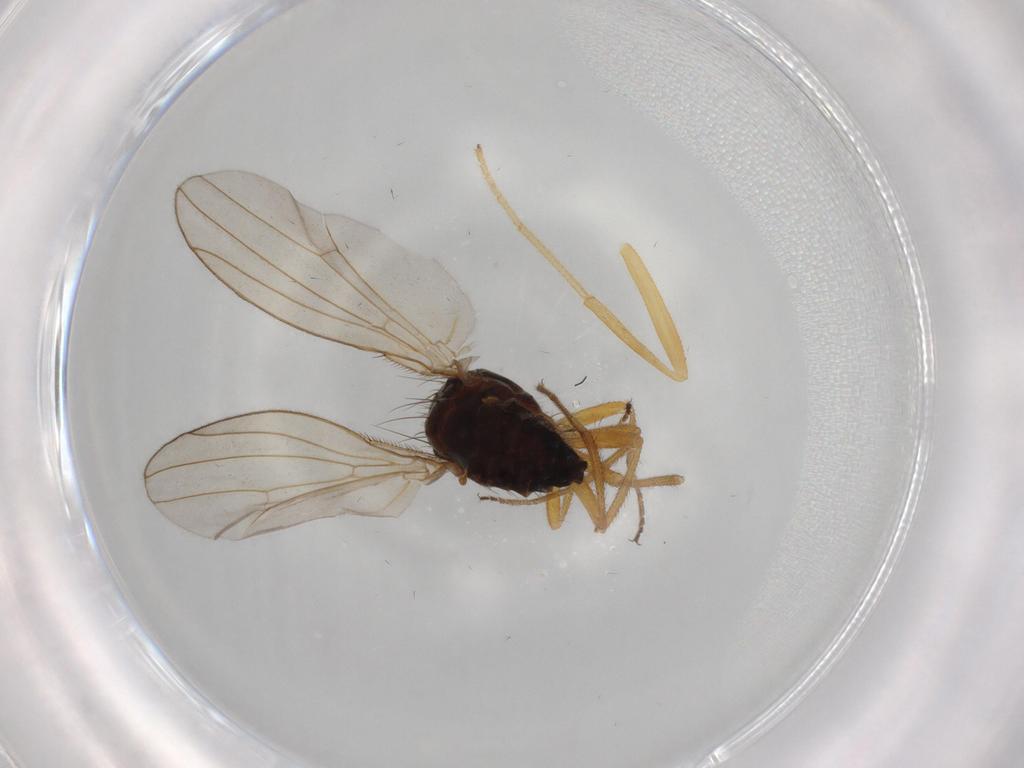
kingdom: Animalia
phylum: Arthropoda
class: Insecta
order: Diptera
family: Drosophilidae
